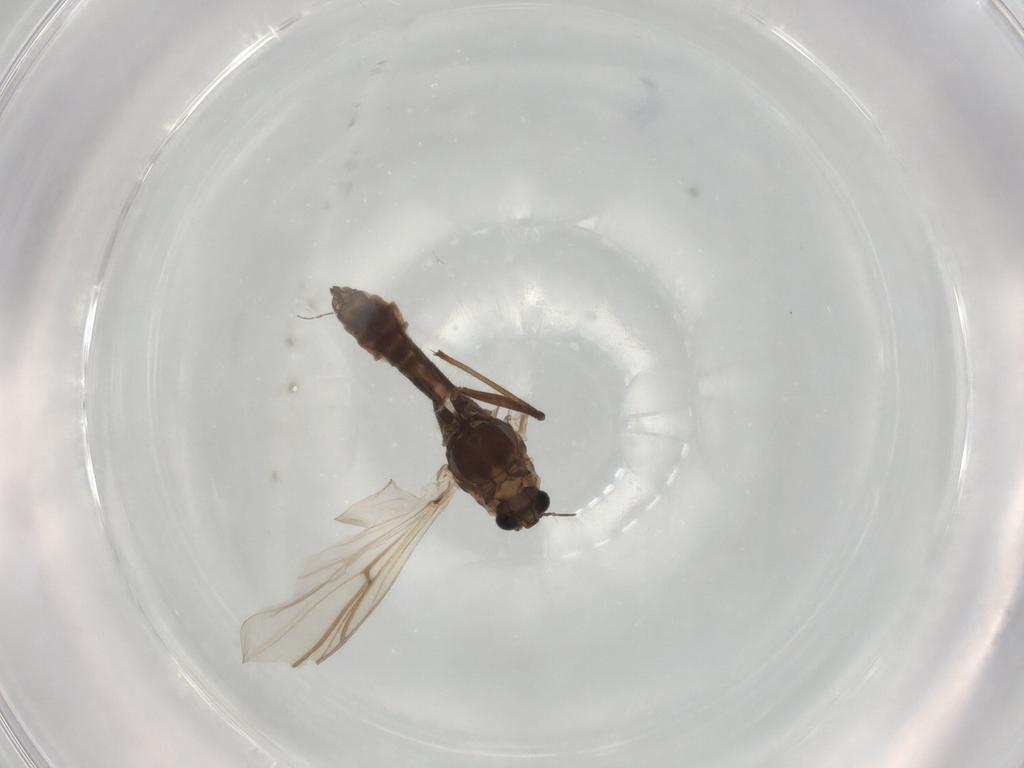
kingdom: Animalia
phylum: Arthropoda
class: Insecta
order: Diptera
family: Chironomidae
